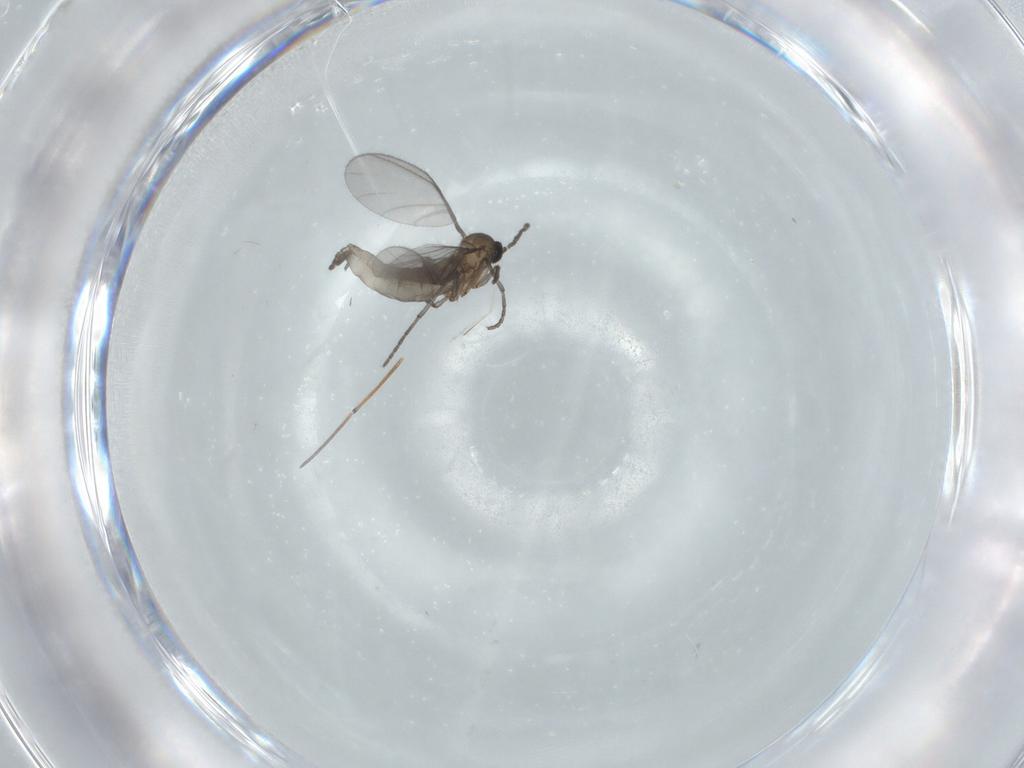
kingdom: Animalia
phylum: Arthropoda
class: Insecta
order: Diptera
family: Sciaridae
